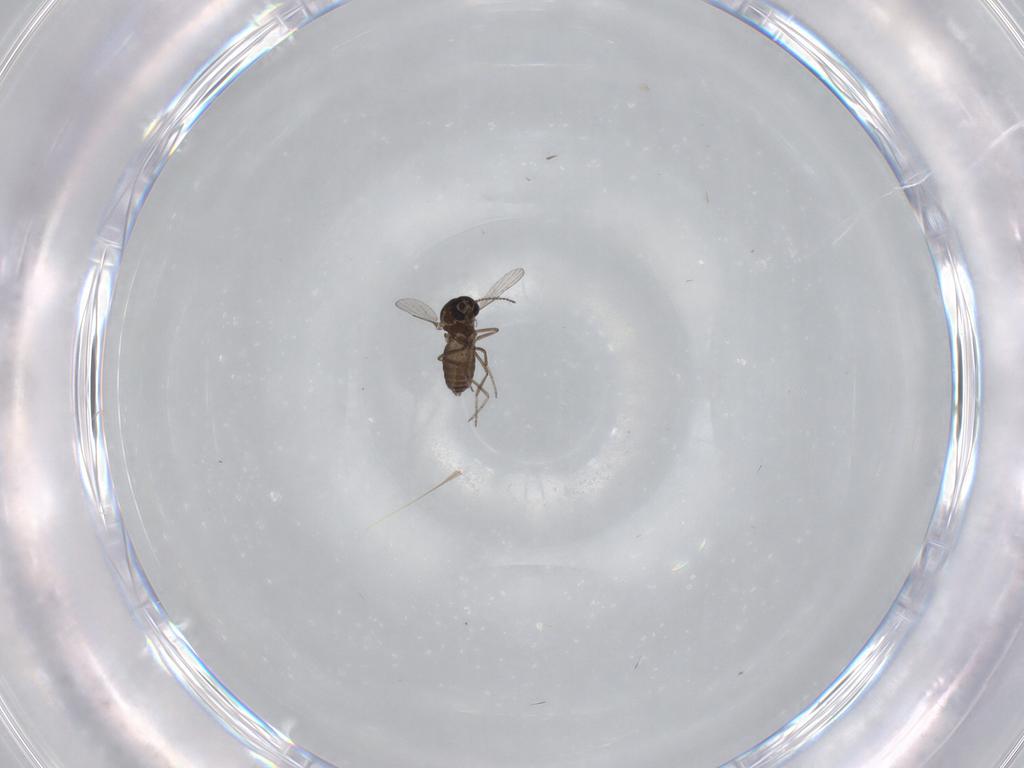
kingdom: Animalia
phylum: Arthropoda
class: Insecta
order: Diptera
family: Ceratopogonidae
